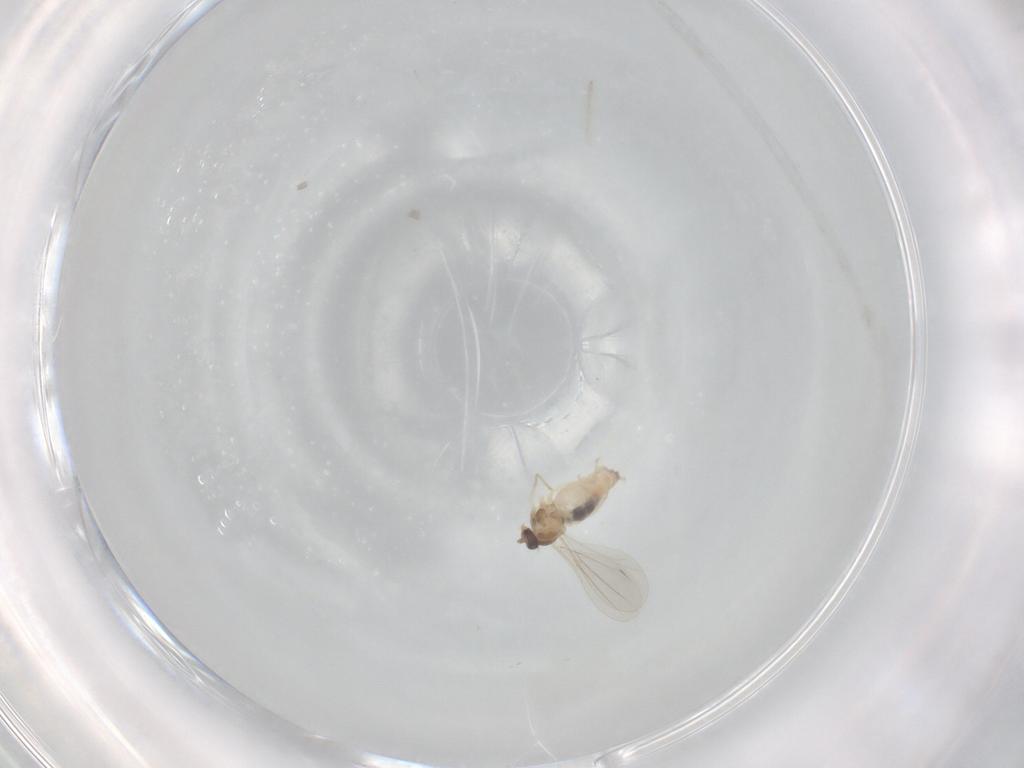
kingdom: Animalia
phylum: Arthropoda
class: Insecta
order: Diptera
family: Cecidomyiidae
